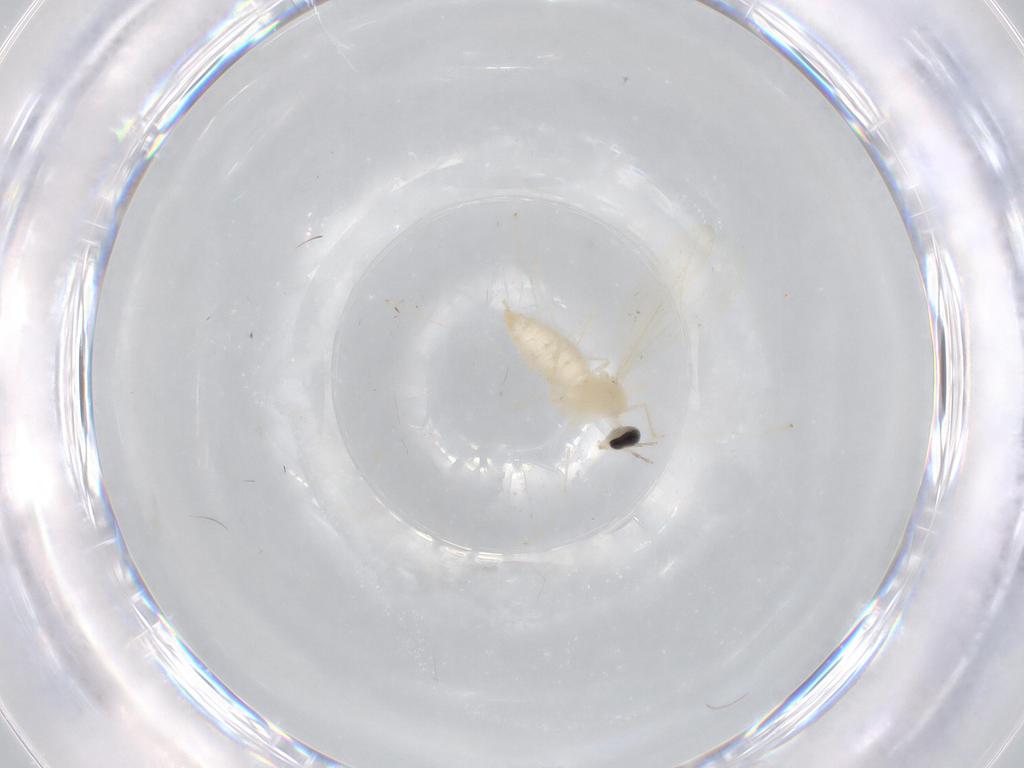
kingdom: Animalia
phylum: Arthropoda
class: Insecta
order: Diptera
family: Cecidomyiidae
